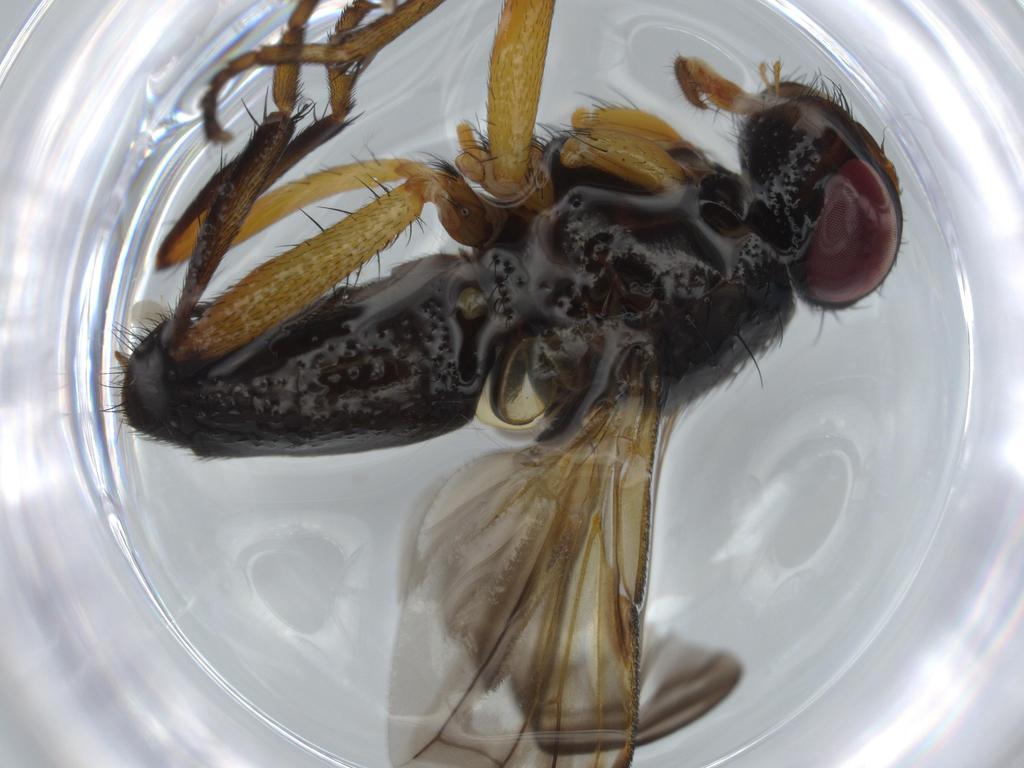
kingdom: Animalia
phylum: Arthropoda
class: Insecta
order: Diptera
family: Calliphoridae
